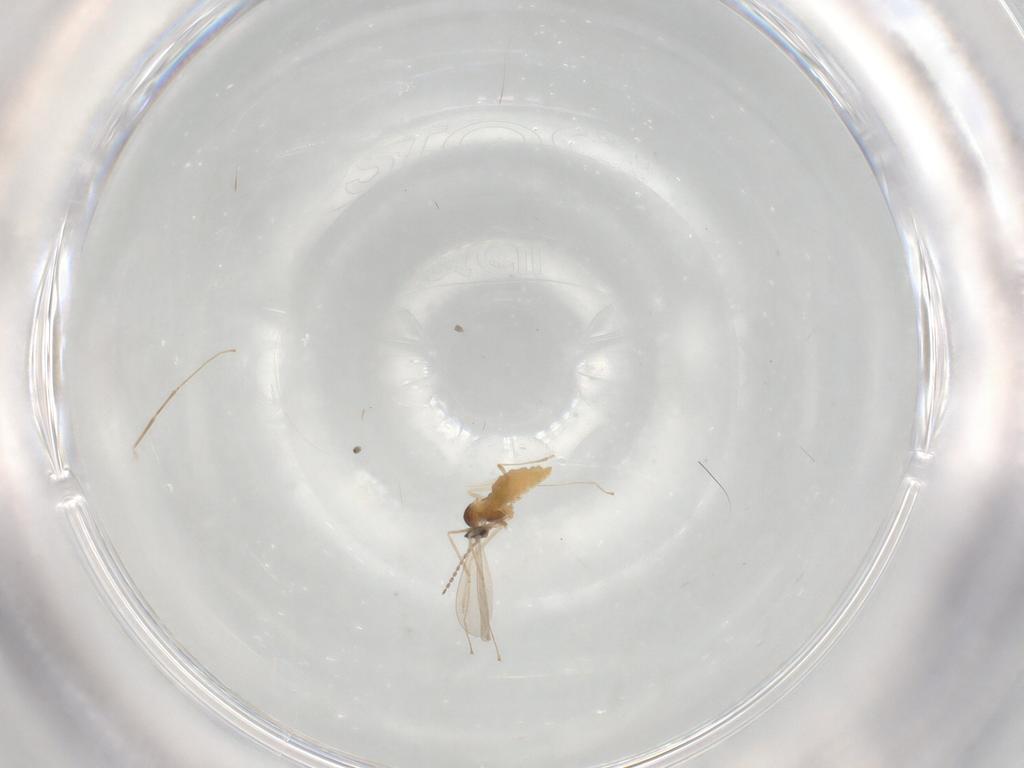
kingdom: Animalia
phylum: Arthropoda
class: Insecta
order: Diptera
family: Cecidomyiidae
